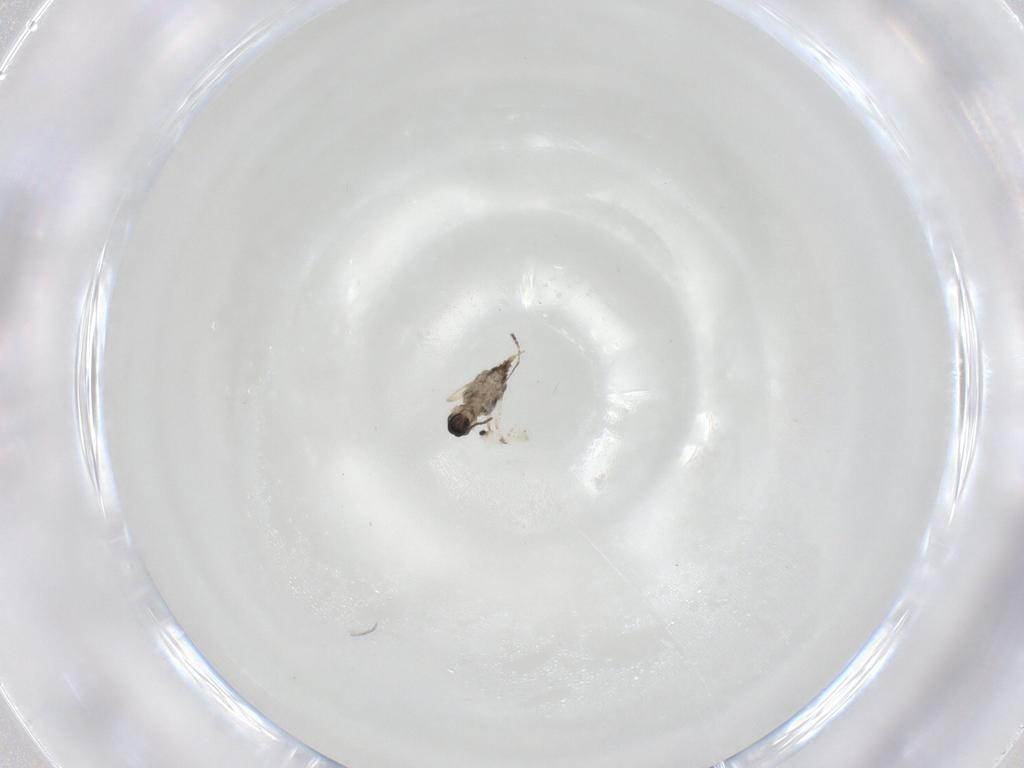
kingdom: Animalia
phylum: Arthropoda
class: Insecta
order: Diptera
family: Cecidomyiidae
